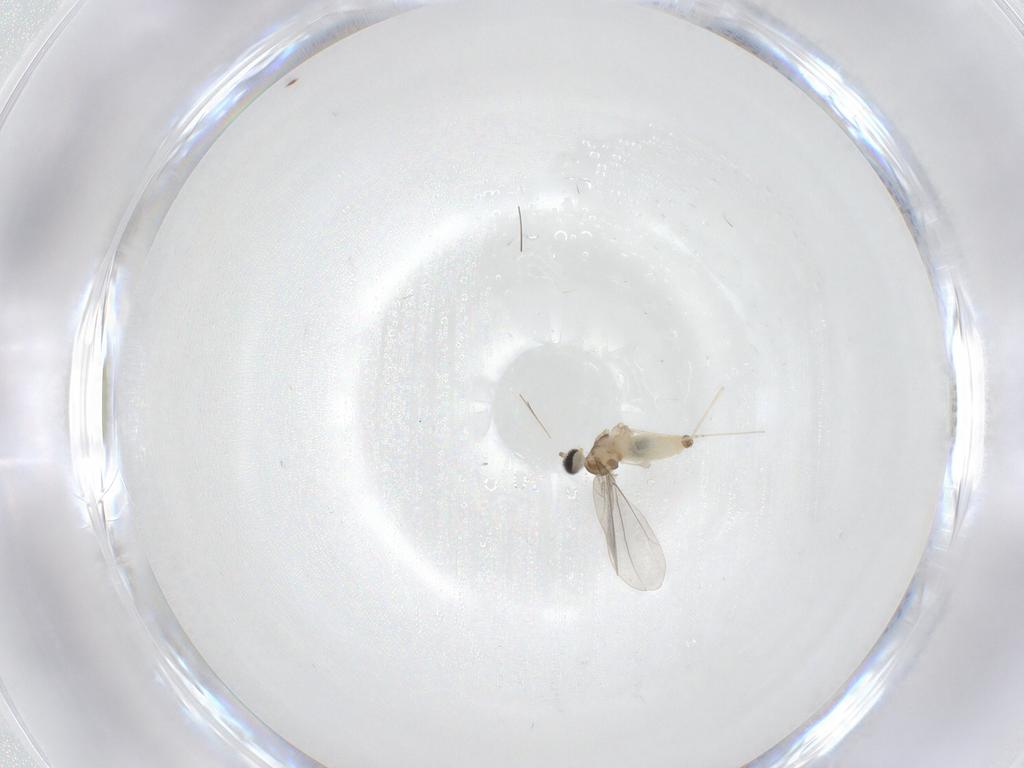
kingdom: Animalia
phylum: Arthropoda
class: Insecta
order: Diptera
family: Cecidomyiidae
